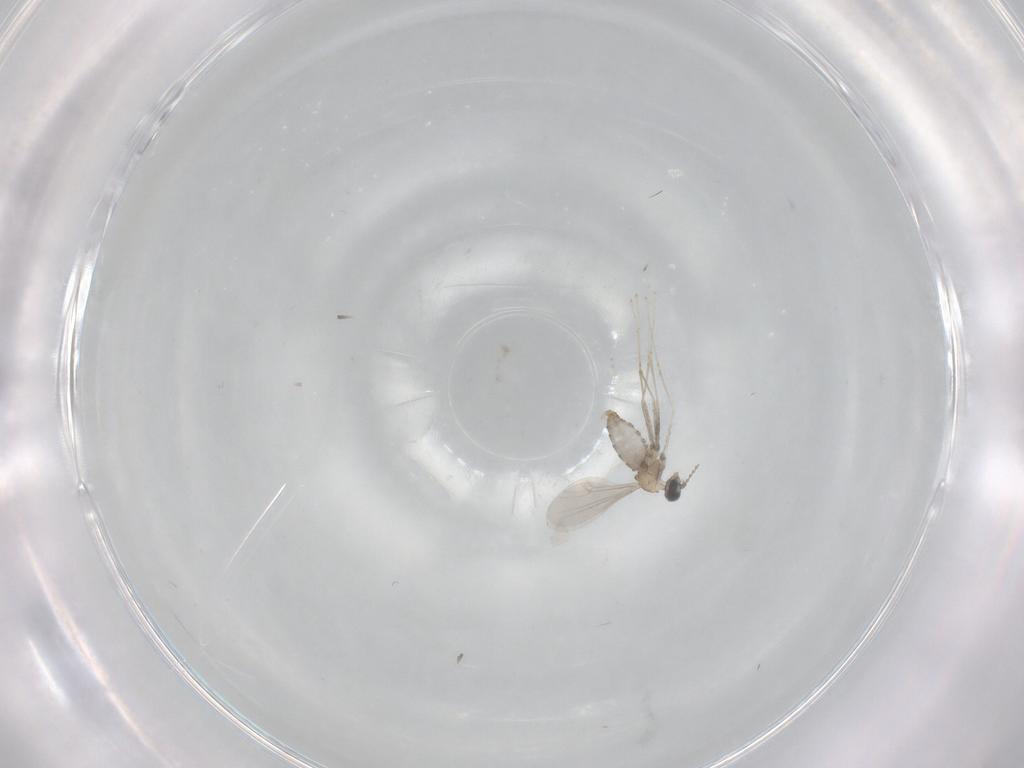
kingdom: Animalia
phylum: Arthropoda
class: Insecta
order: Diptera
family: Cecidomyiidae
